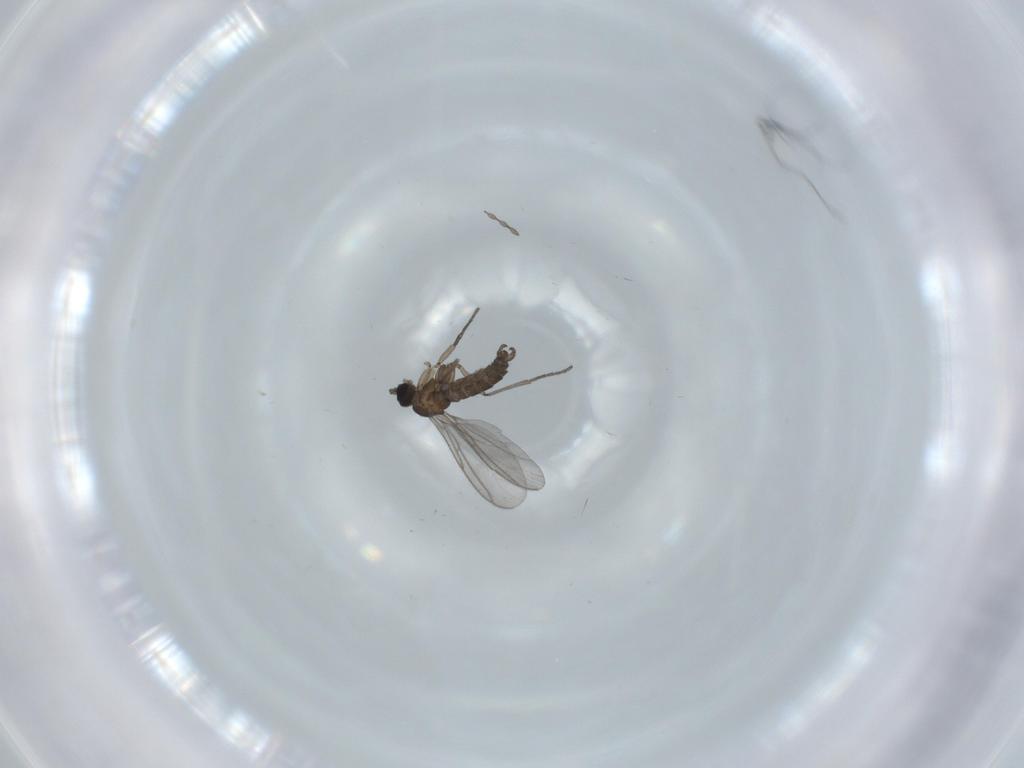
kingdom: Animalia
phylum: Arthropoda
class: Insecta
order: Diptera
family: Cecidomyiidae
